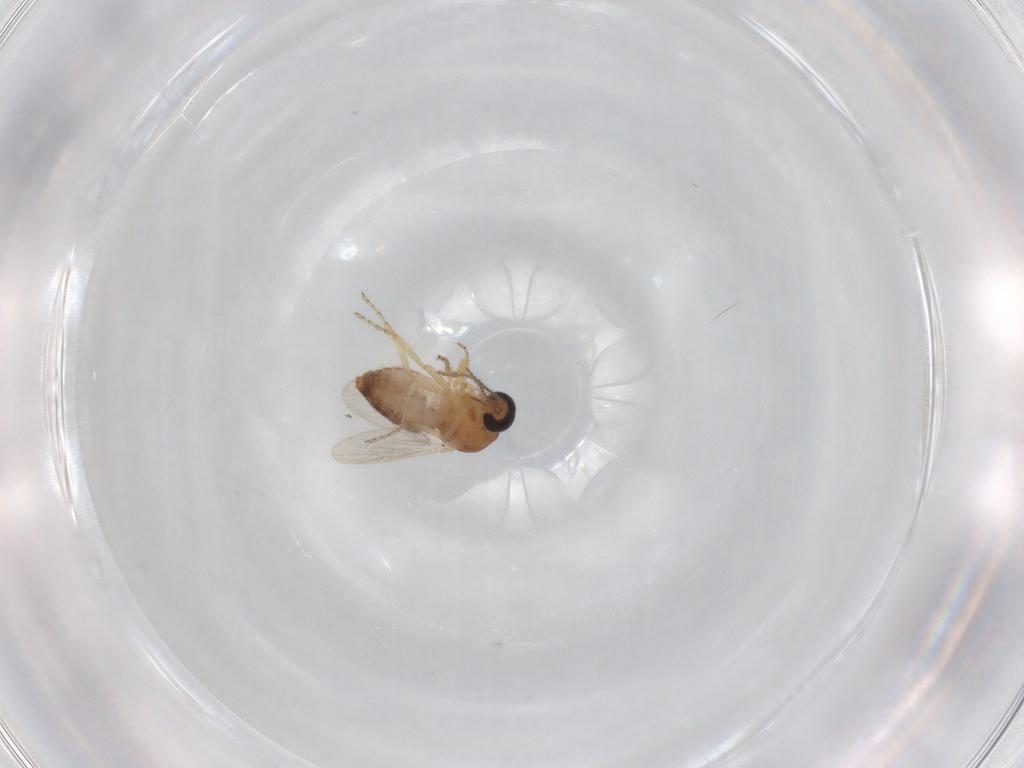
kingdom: Animalia
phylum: Arthropoda
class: Insecta
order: Diptera
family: Ceratopogonidae
